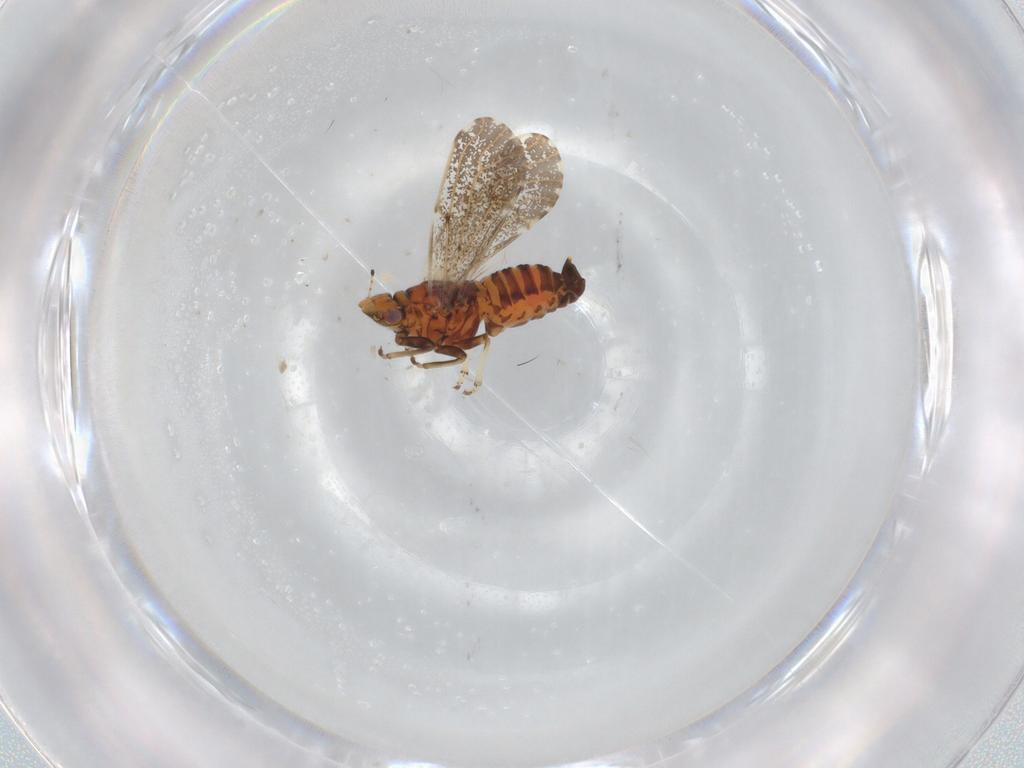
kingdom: Animalia
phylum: Arthropoda
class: Insecta
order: Hemiptera
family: Cicadellidae
